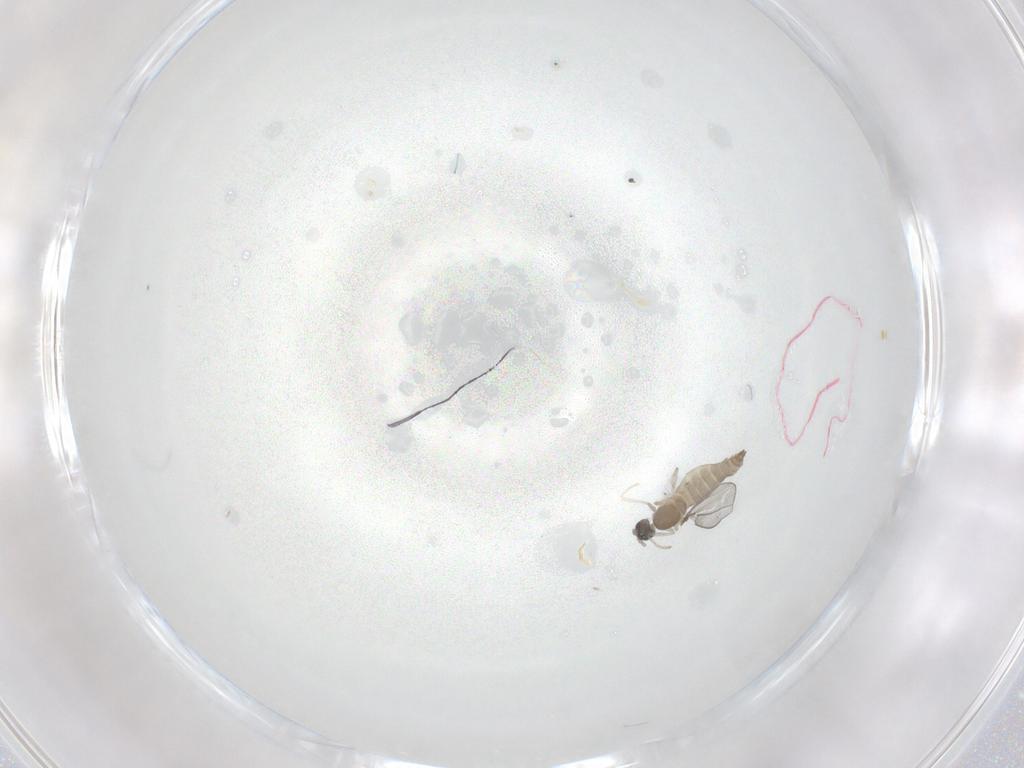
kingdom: Animalia
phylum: Arthropoda
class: Insecta
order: Diptera
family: Cecidomyiidae
